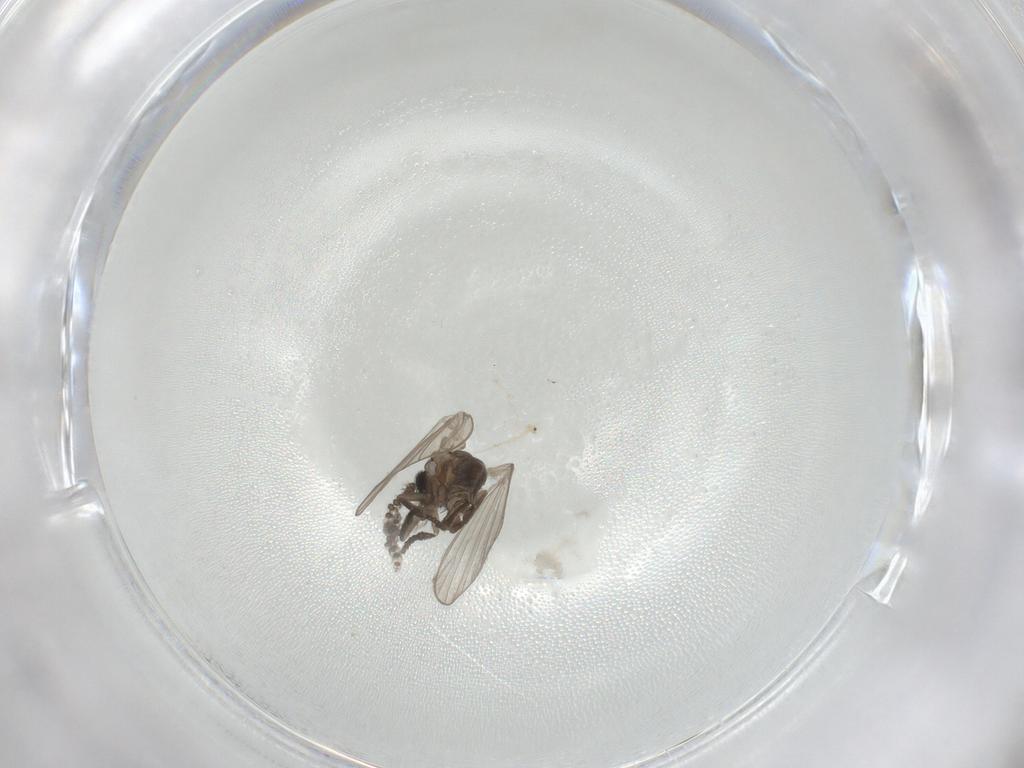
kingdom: Animalia
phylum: Arthropoda
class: Insecta
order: Diptera
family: Psychodidae
